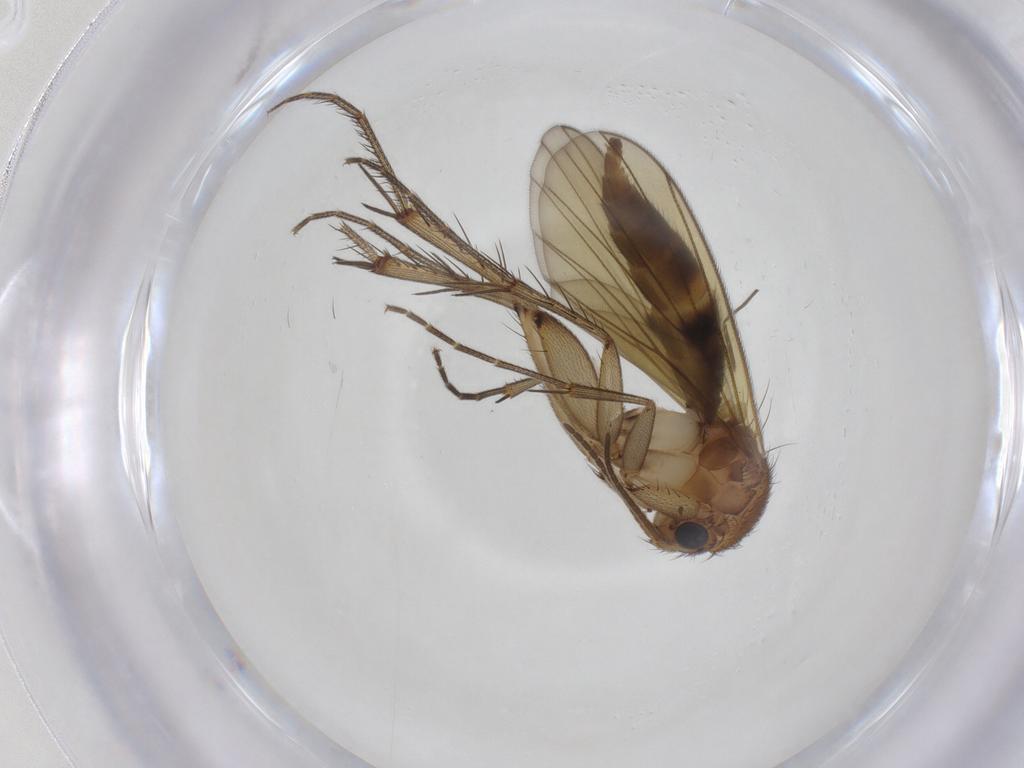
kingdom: Animalia
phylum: Arthropoda
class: Insecta
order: Diptera
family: Mycetophilidae
